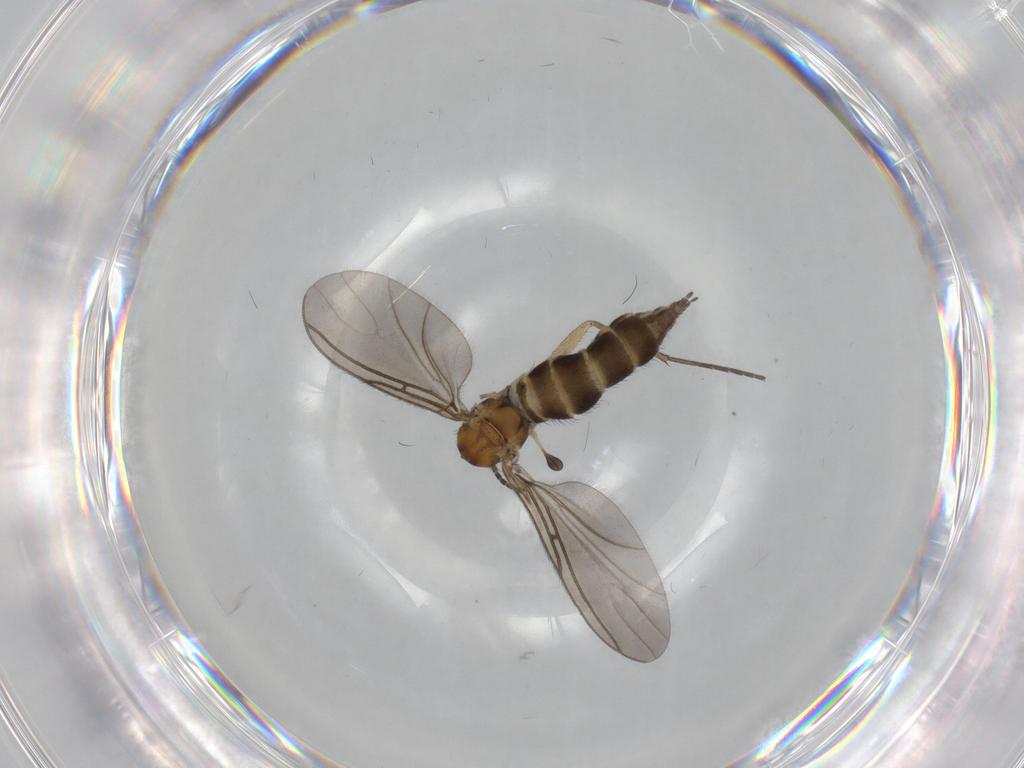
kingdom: Animalia
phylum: Arthropoda
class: Insecta
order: Diptera
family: Sciaridae
